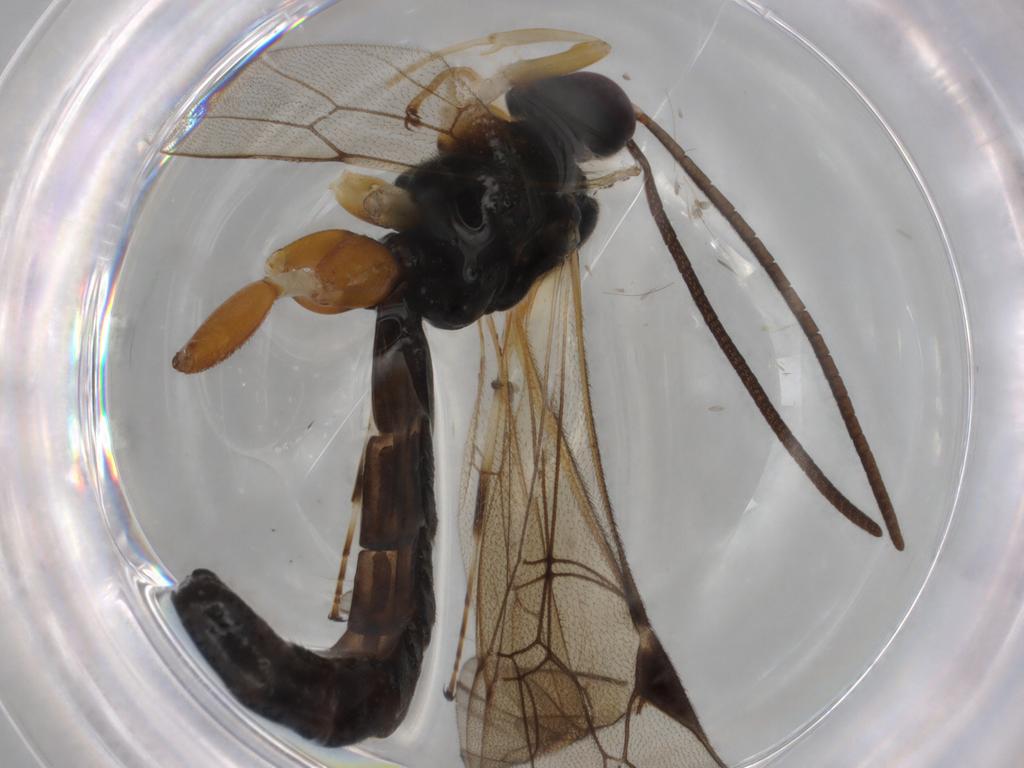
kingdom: Animalia
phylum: Arthropoda
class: Insecta
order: Hymenoptera
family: Ichneumonidae
